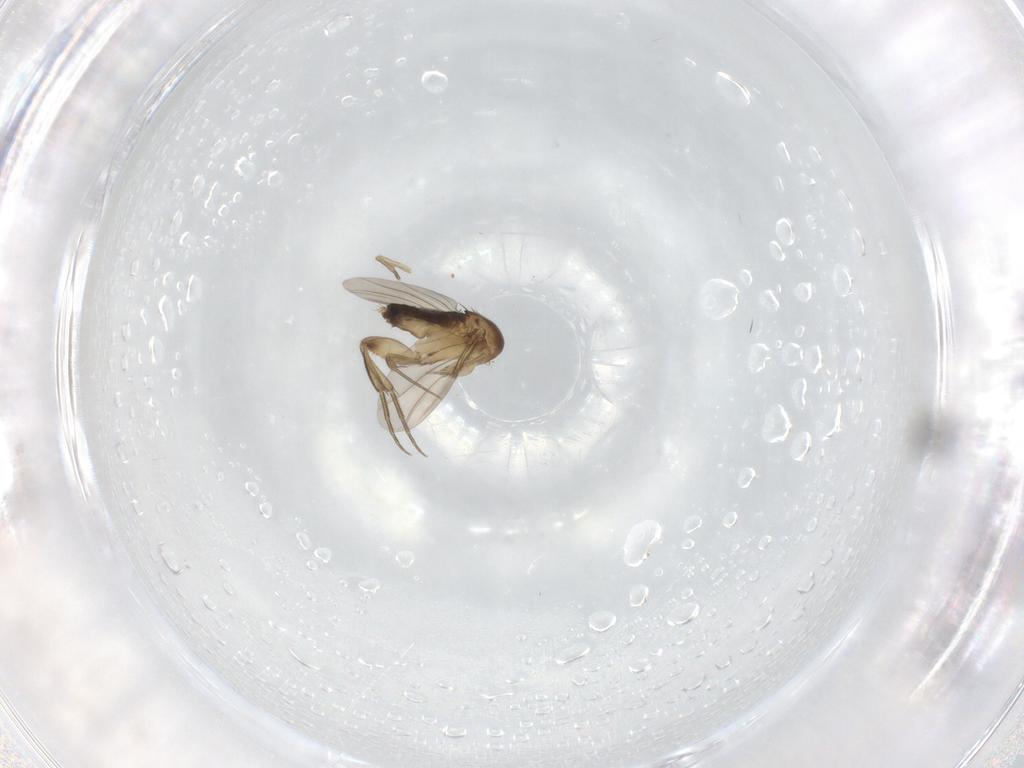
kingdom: Animalia
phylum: Arthropoda
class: Insecta
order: Diptera
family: Phoridae
